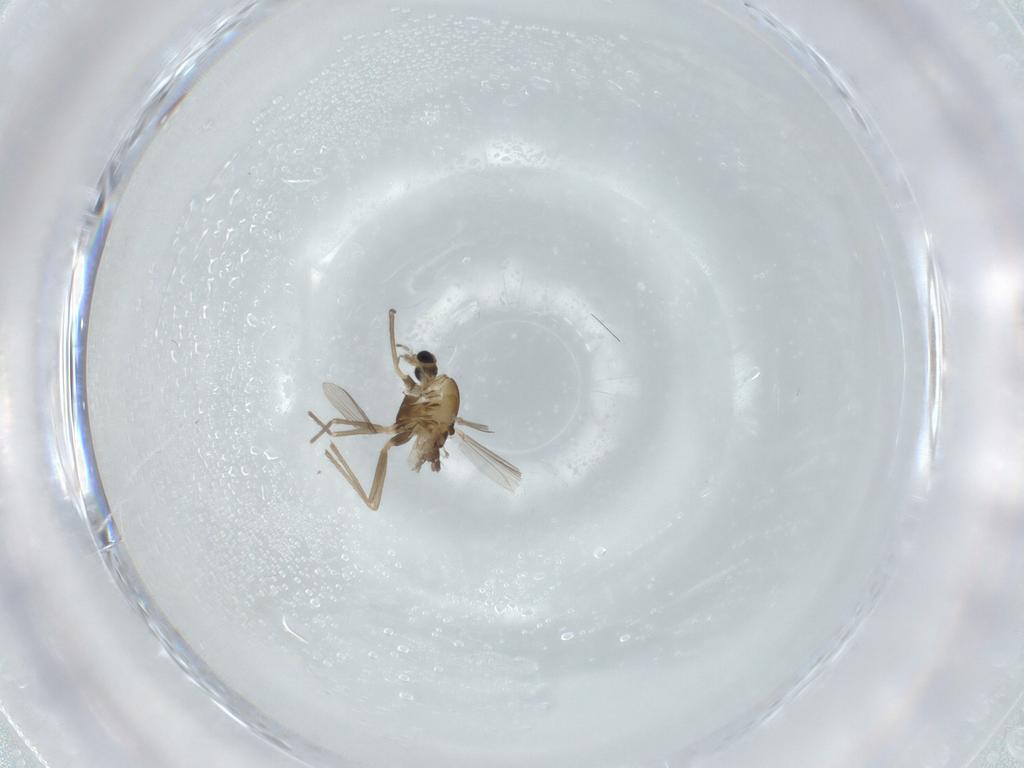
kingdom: Animalia
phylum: Arthropoda
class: Insecta
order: Diptera
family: Chironomidae
